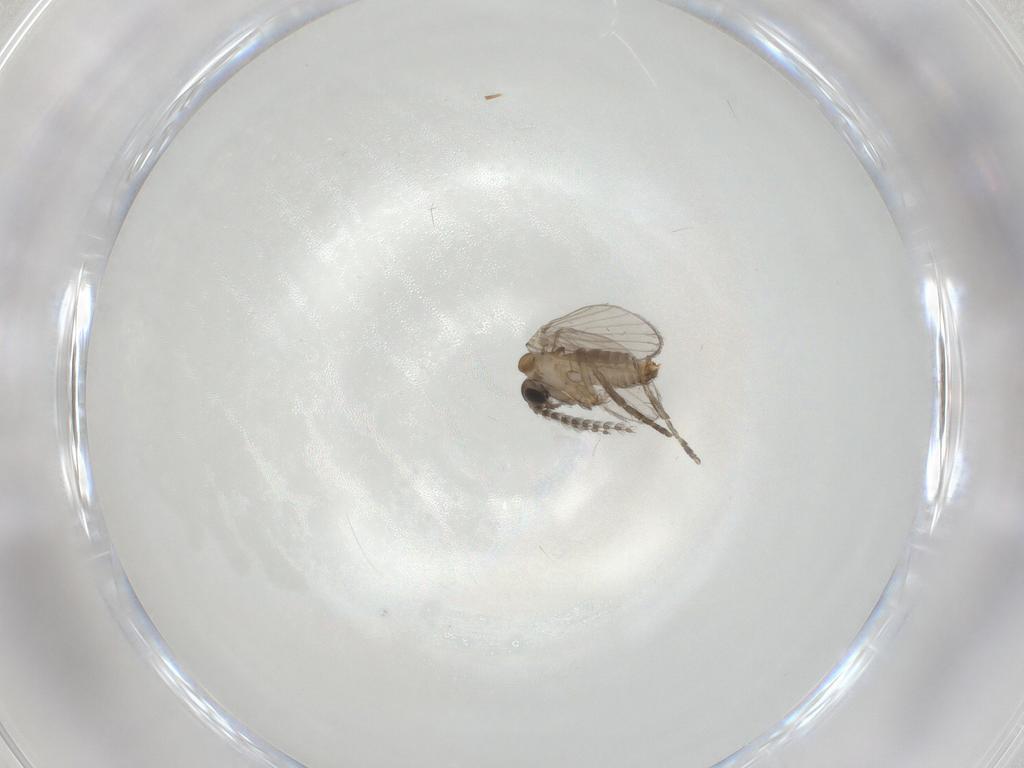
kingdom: Animalia
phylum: Arthropoda
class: Insecta
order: Diptera
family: Psychodidae
